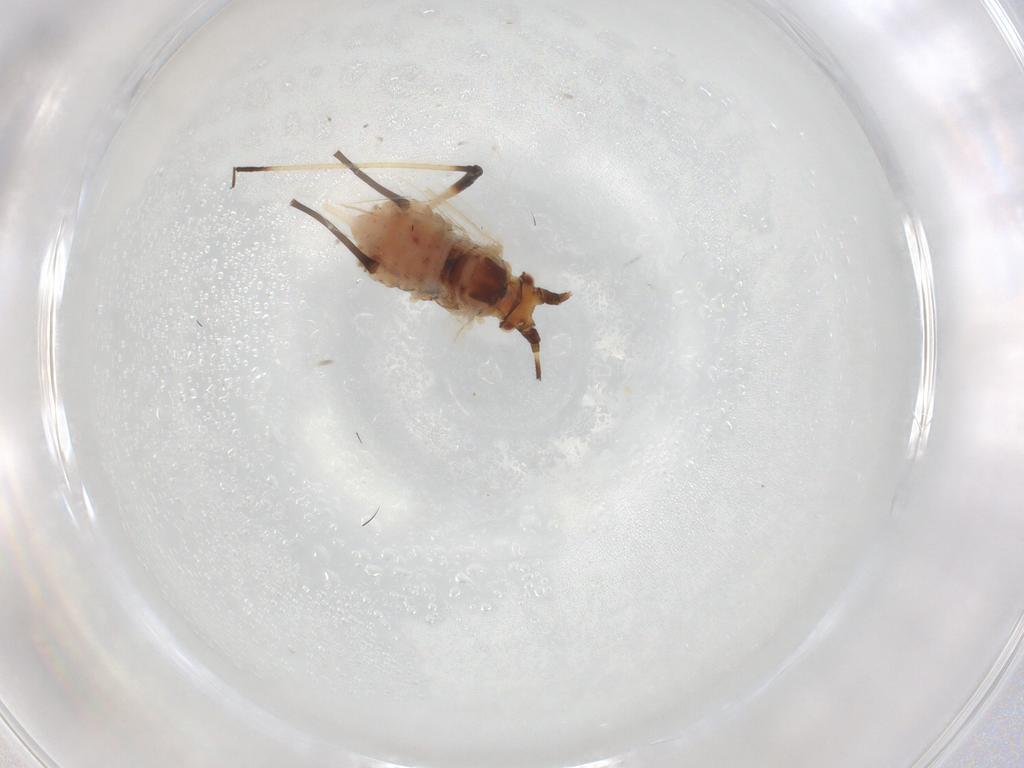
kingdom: Animalia
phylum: Arthropoda
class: Insecta
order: Hemiptera
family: Aphididae
